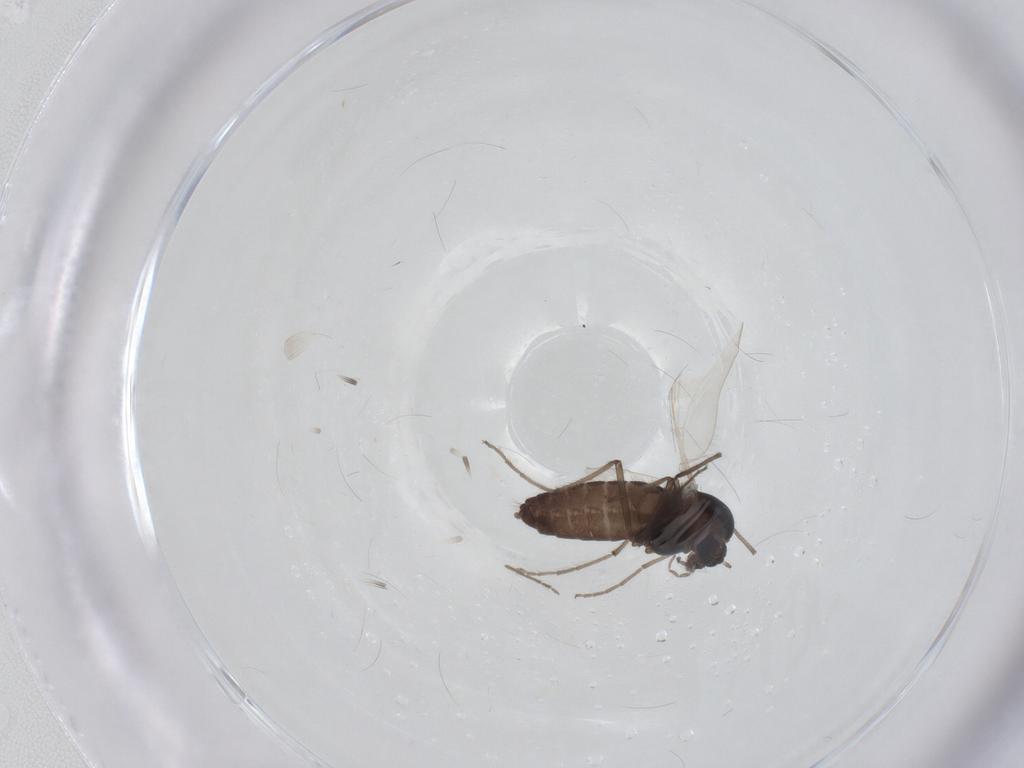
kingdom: Animalia
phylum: Arthropoda
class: Insecta
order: Diptera
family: Chironomidae
